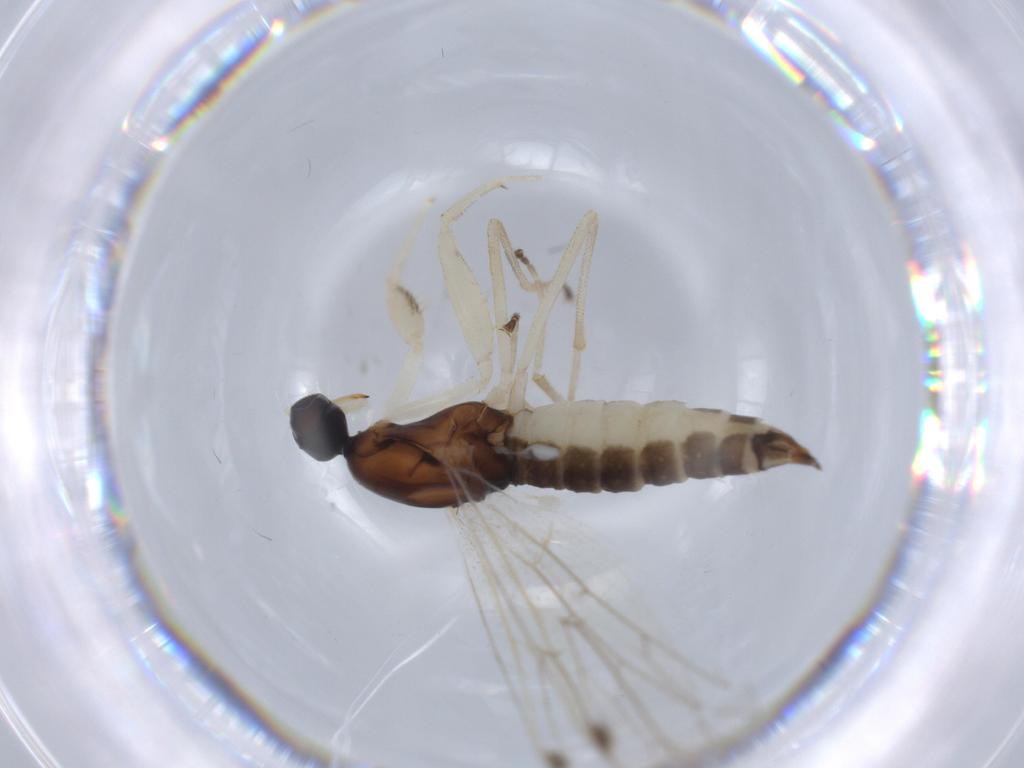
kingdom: Animalia
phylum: Arthropoda
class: Insecta
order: Diptera
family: Empididae
